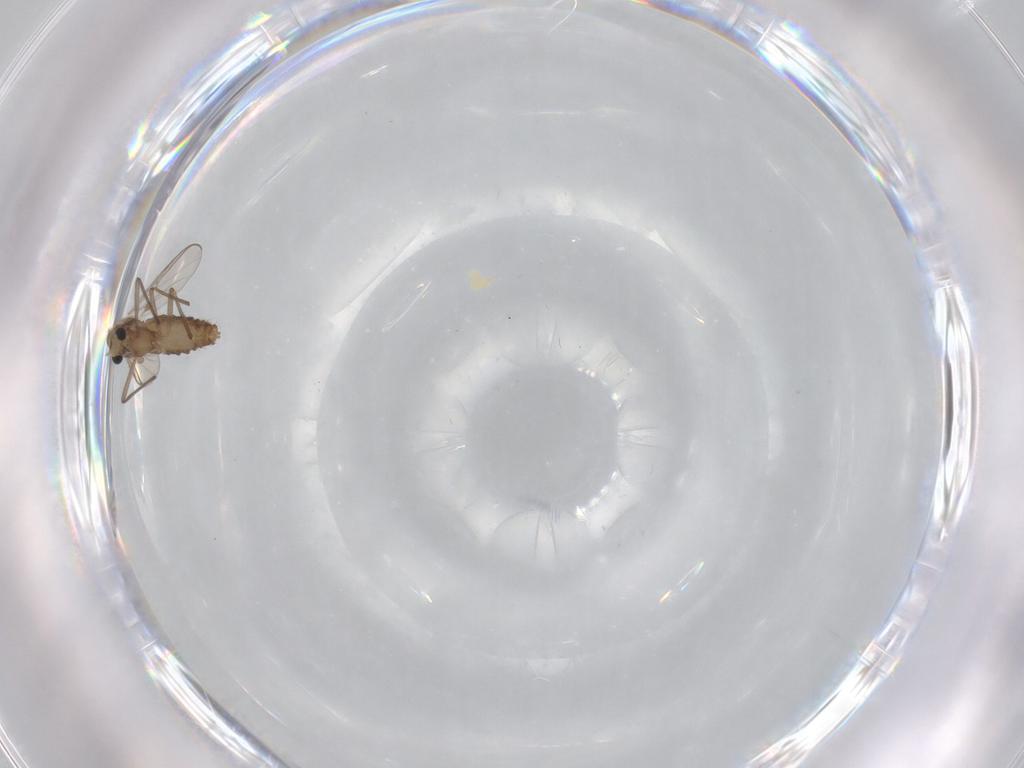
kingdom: Animalia
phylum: Arthropoda
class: Insecta
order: Diptera
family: Chironomidae
